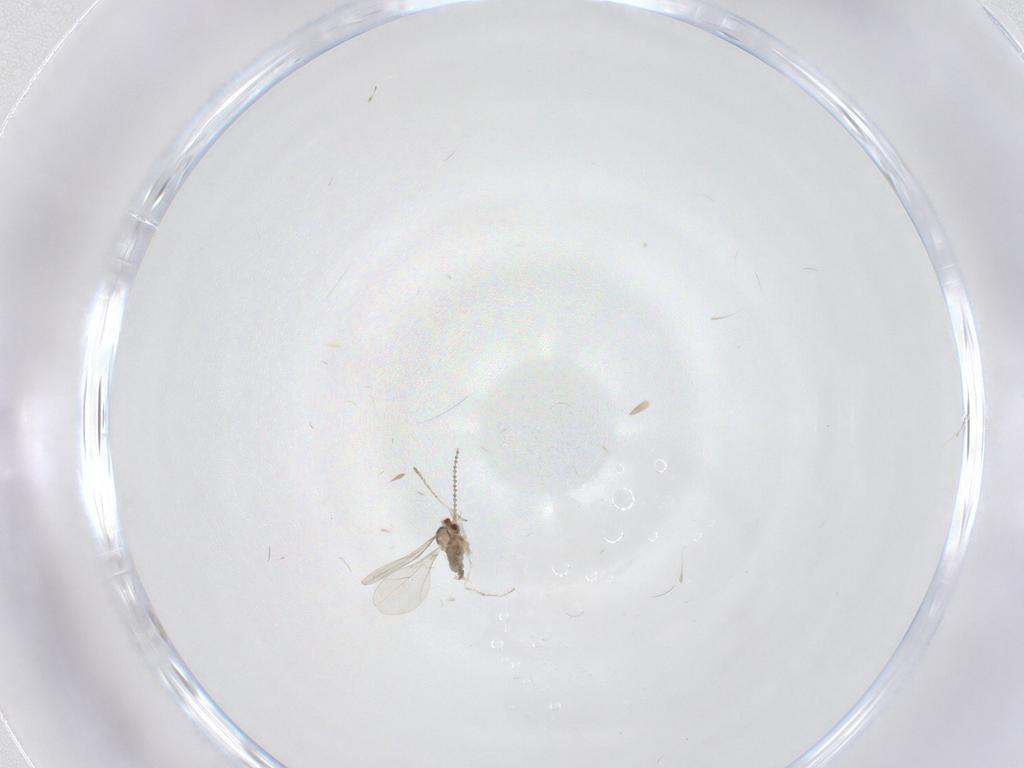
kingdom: Animalia
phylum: Arthropoda
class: Insecta
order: Diptera
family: Cecidomyiidae
